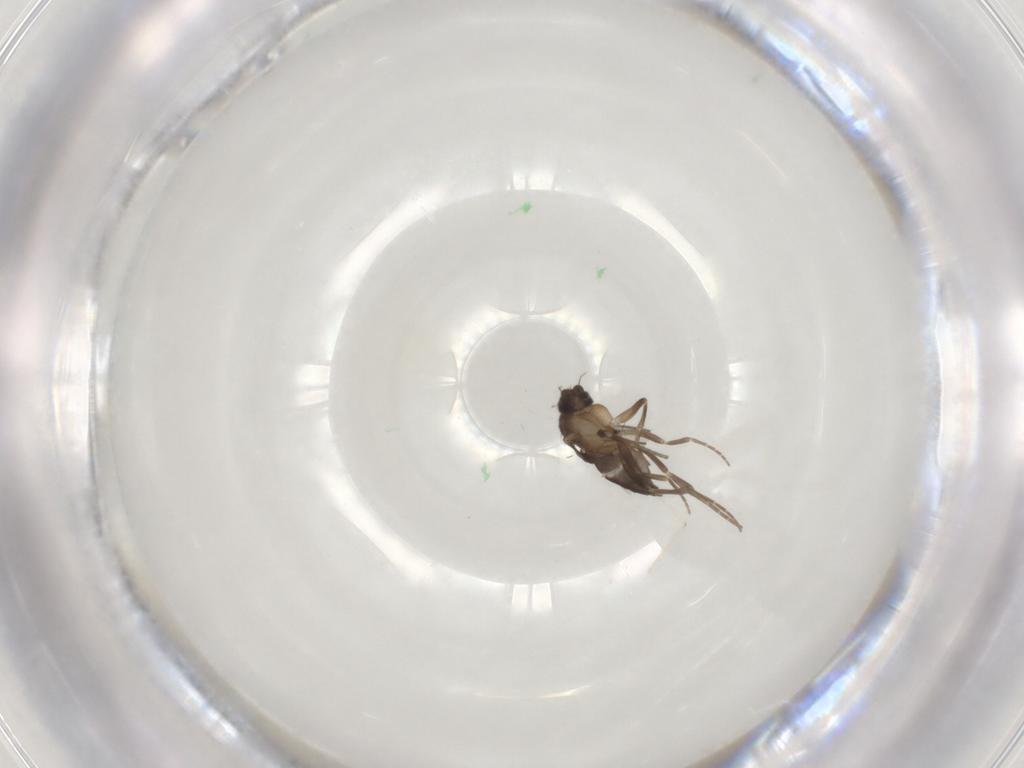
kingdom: Animalia
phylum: Arthropoda
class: Insecta
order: Diptera
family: Phoridae
